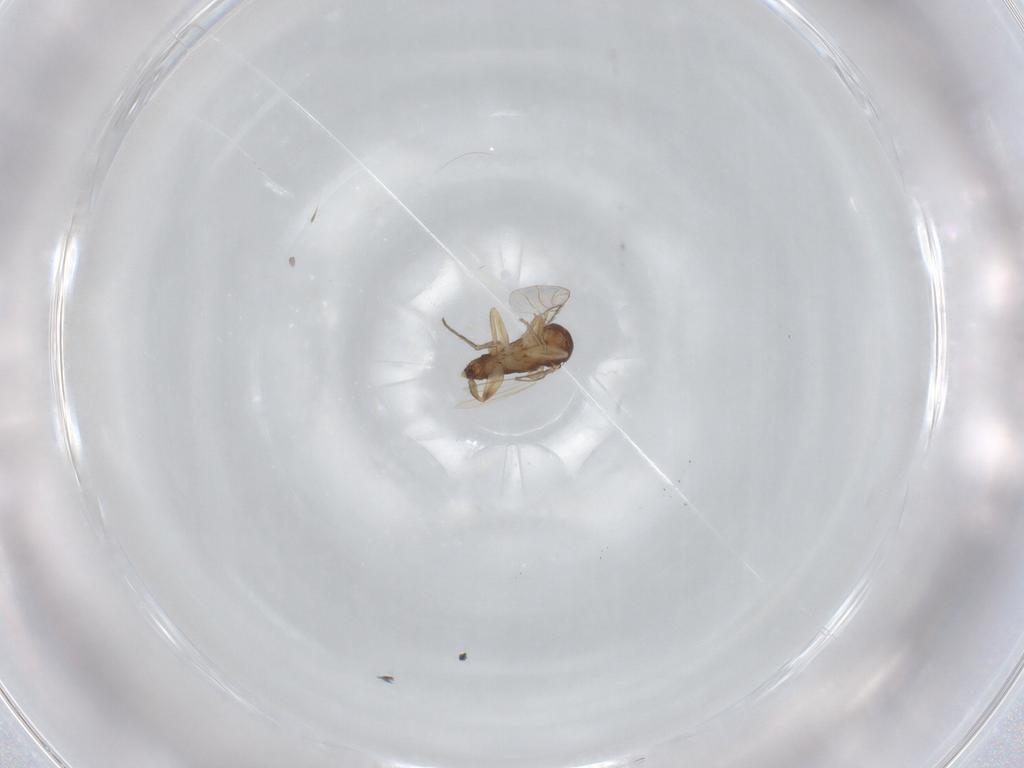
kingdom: Animalia
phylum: Arthropoda
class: Insecta
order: Diptera
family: Phoridae
